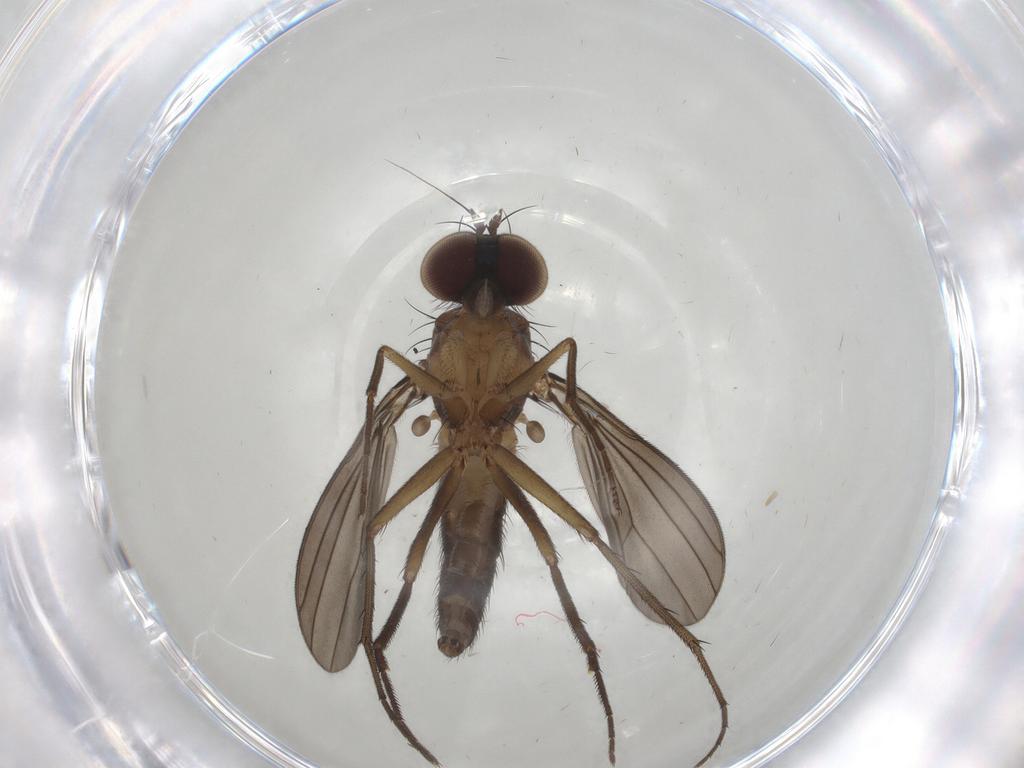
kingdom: Animalia
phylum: Arthropoda
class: Insecta
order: Diptera
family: Dolichopodidae
